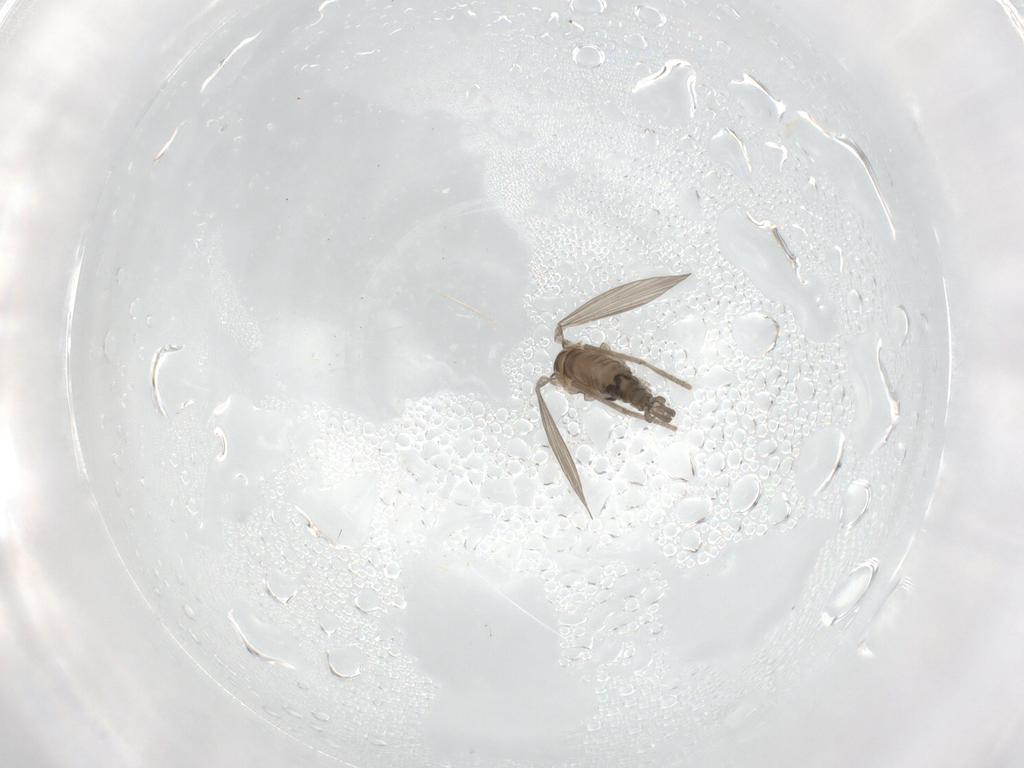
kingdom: Animalia
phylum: Arthropoda
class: Insecta
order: Diptera
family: Psychodidae
